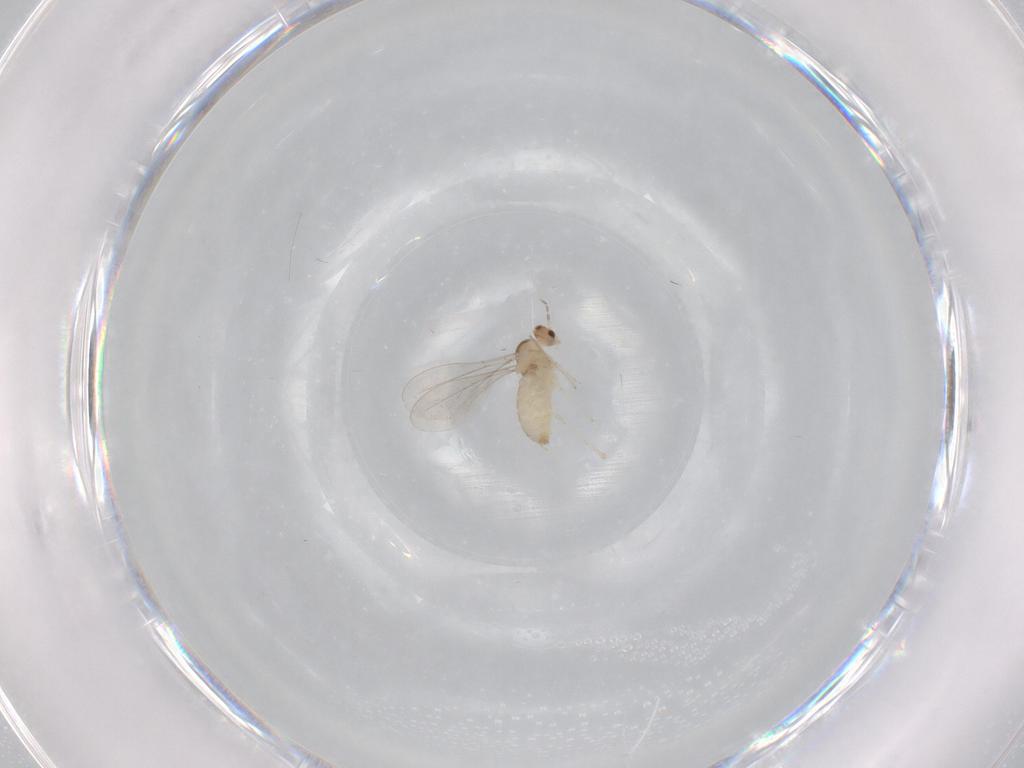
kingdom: Animalia
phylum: Arthropoda
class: Insecta
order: Diptera
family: Cecidomyiidae
